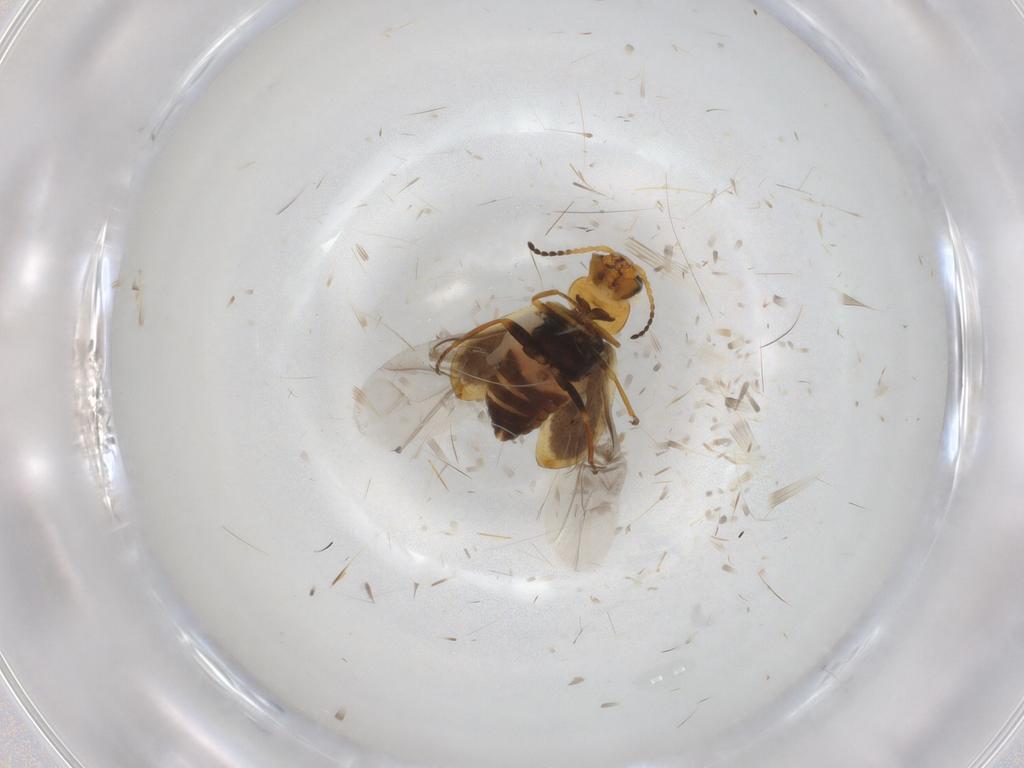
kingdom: Animalia
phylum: Arthropoda
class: Insecta
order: Coleoptera
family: Melyridae
